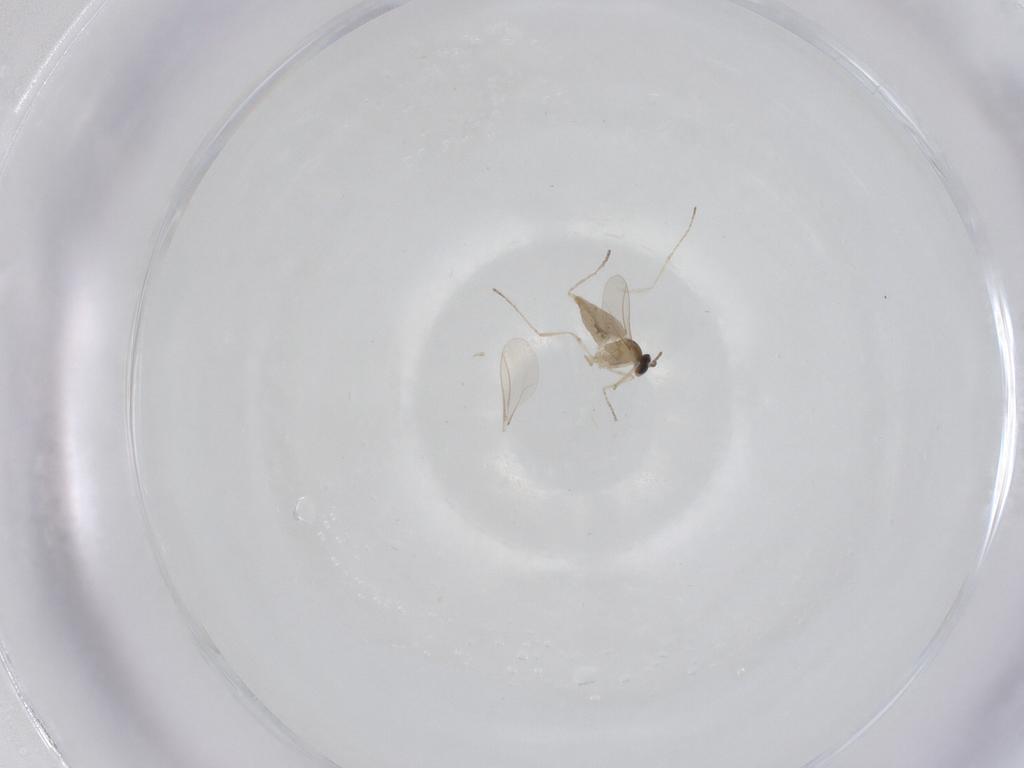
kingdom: Animalia
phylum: Arthropoda
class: Insecta
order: Diptera
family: Cecidomyiidae
